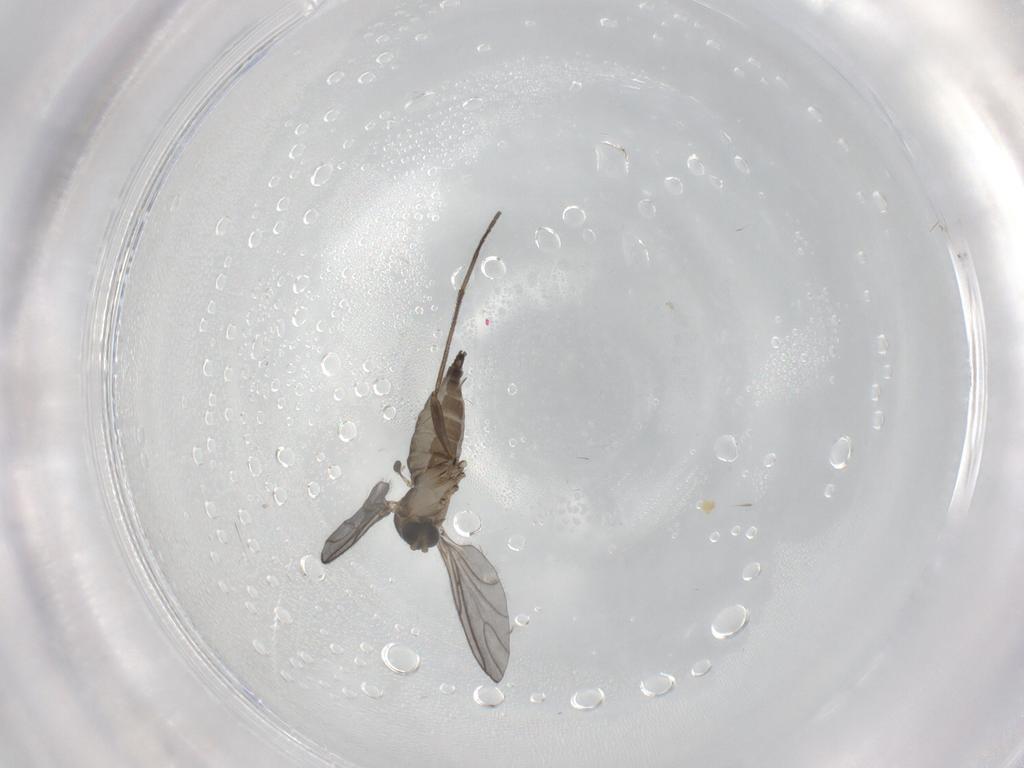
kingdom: Animalia
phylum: Arthropoda
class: Insecta
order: Diptera
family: Sciaridae
